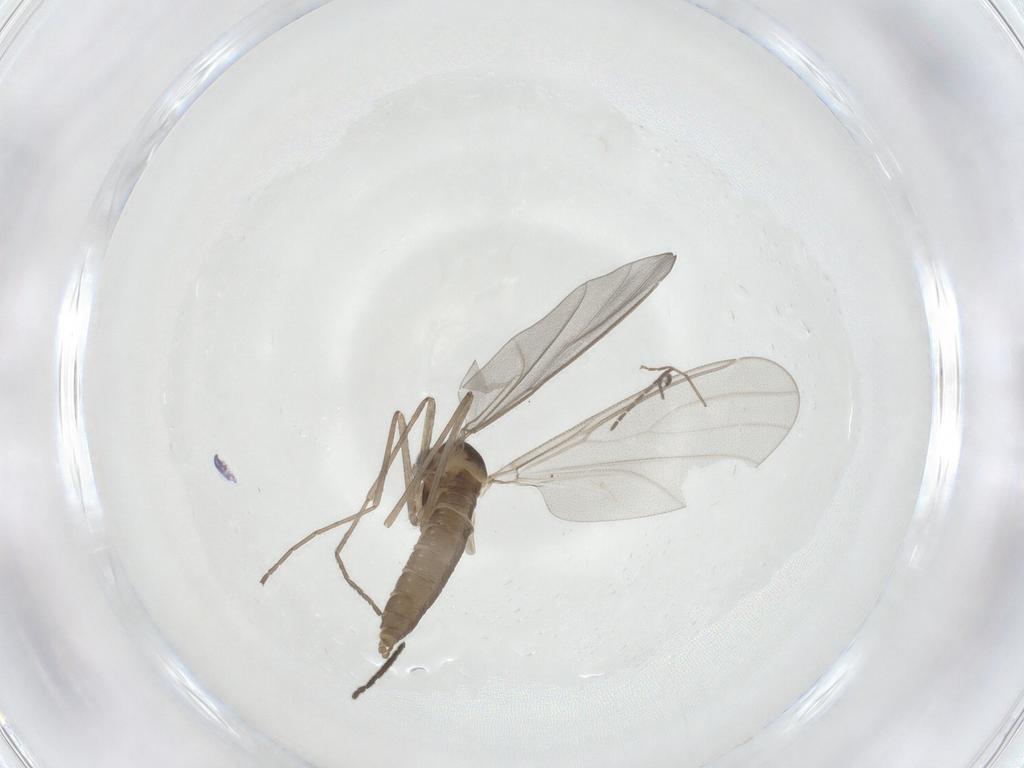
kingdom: Animalia
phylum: Arthropoda
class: Insecta
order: Diptera
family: Cecidomyiidae
